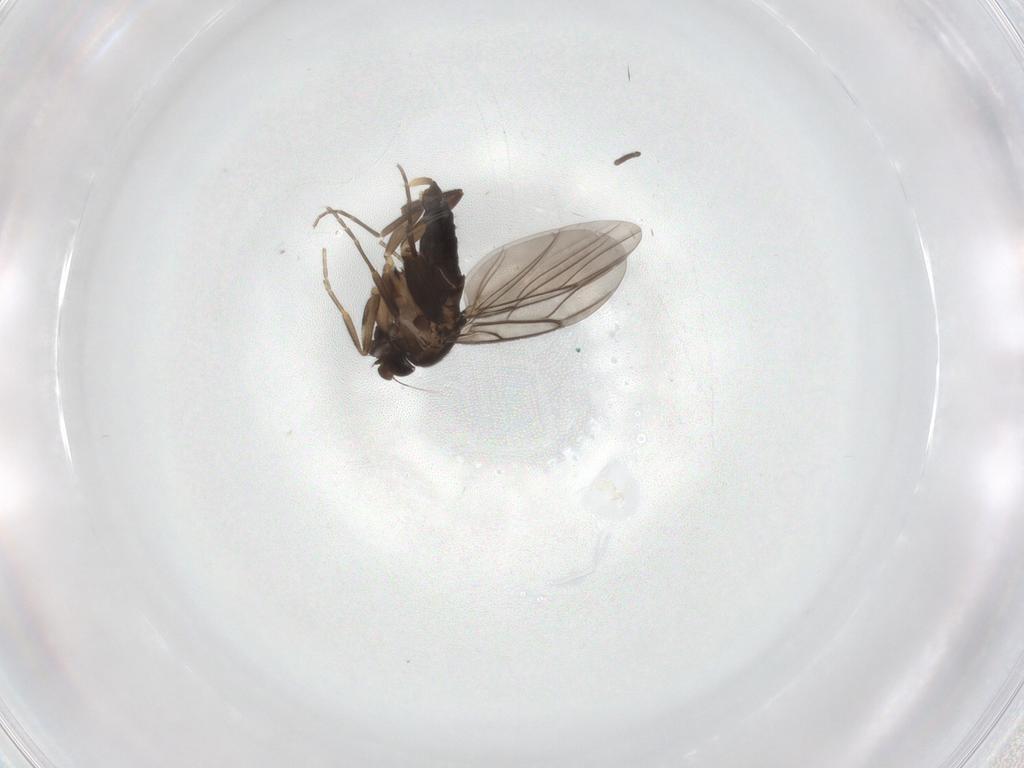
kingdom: Animalia
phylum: Arthropoda
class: Insecta
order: Diptera
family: Phoridae
